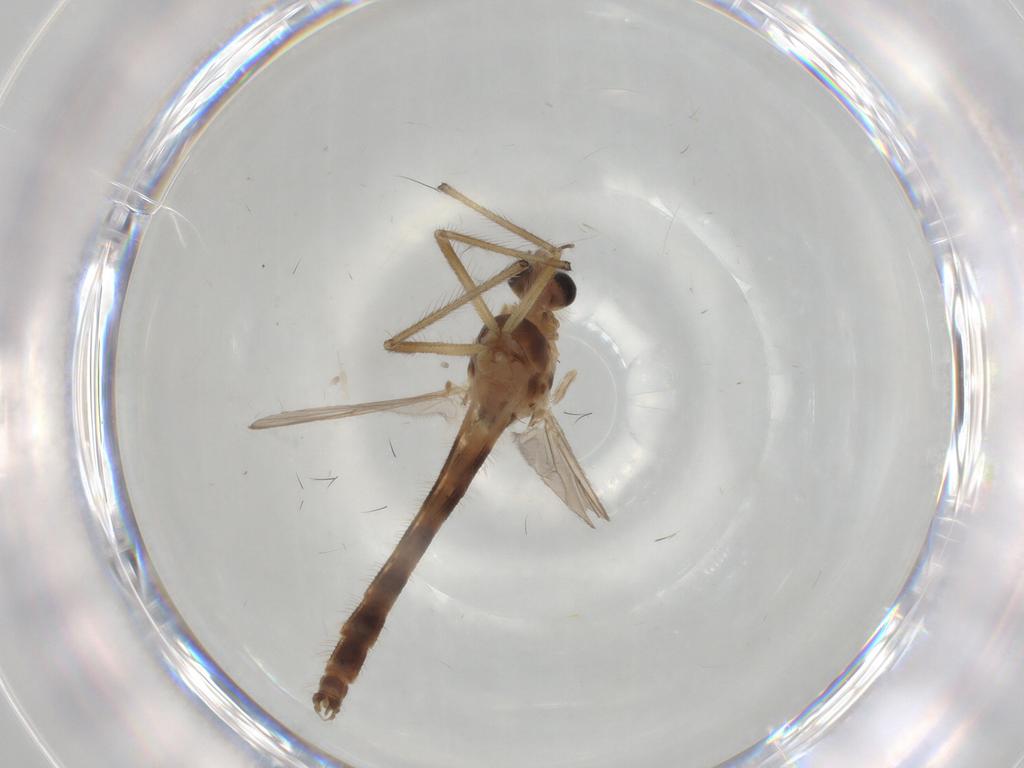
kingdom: Animalia
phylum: Arthropoda
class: Insecta
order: Diptera
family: Chironomidae
